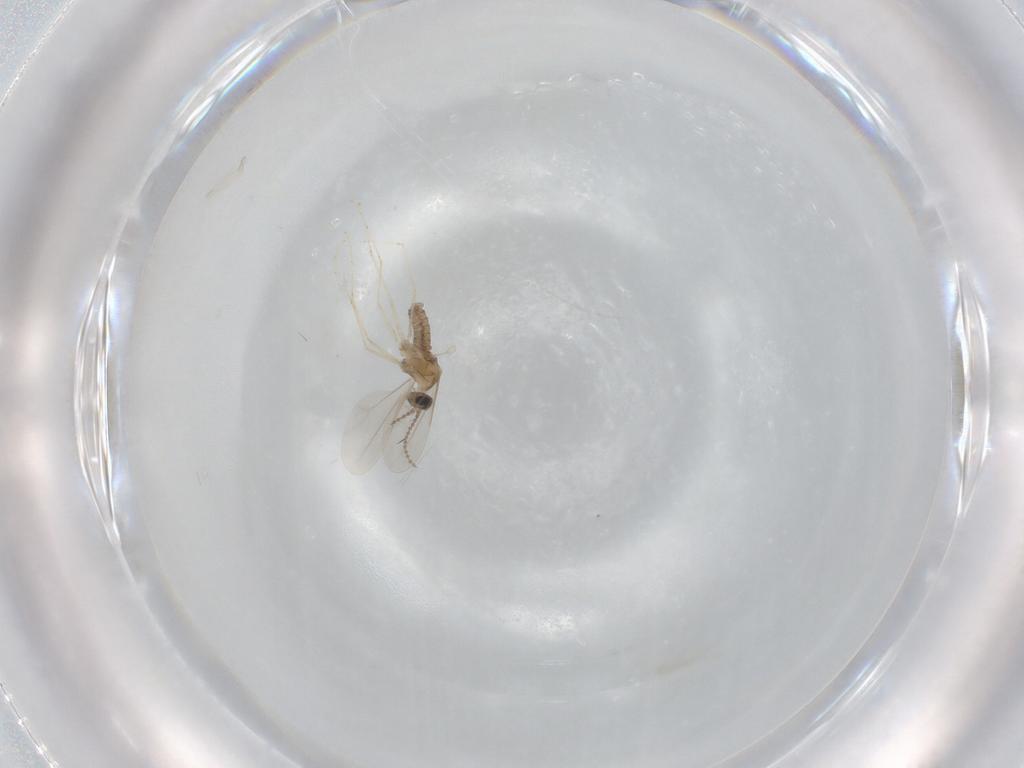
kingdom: Animalia
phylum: Arthropoda
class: Insecta
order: Diptera
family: Cecidomyiidae
